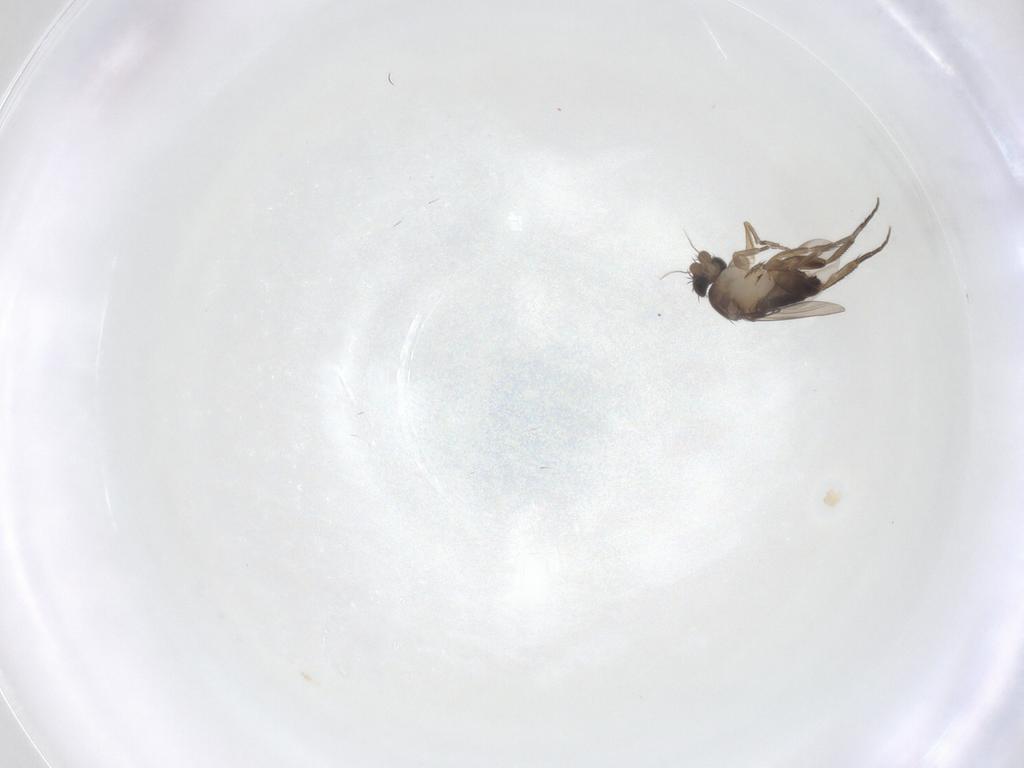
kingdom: Animalia
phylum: Arthropoda
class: Insecta
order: Diptera
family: Phoridae
